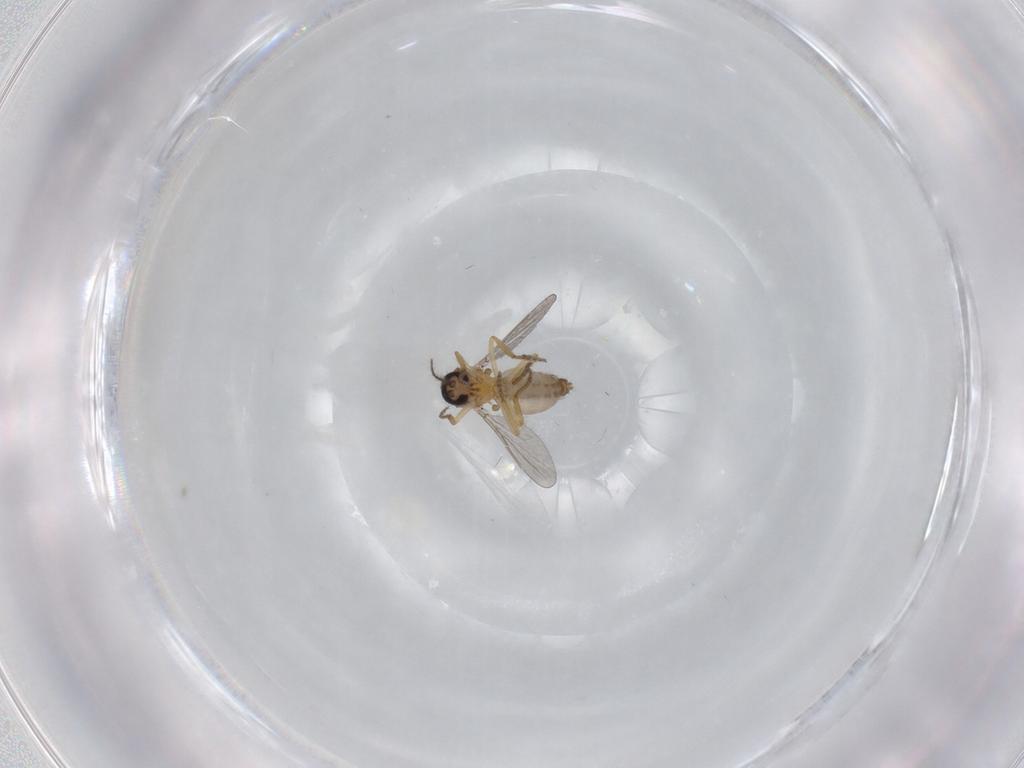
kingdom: Animalia
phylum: Arthropoda
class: Insecta
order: Diptera
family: Ceratopogonidae
